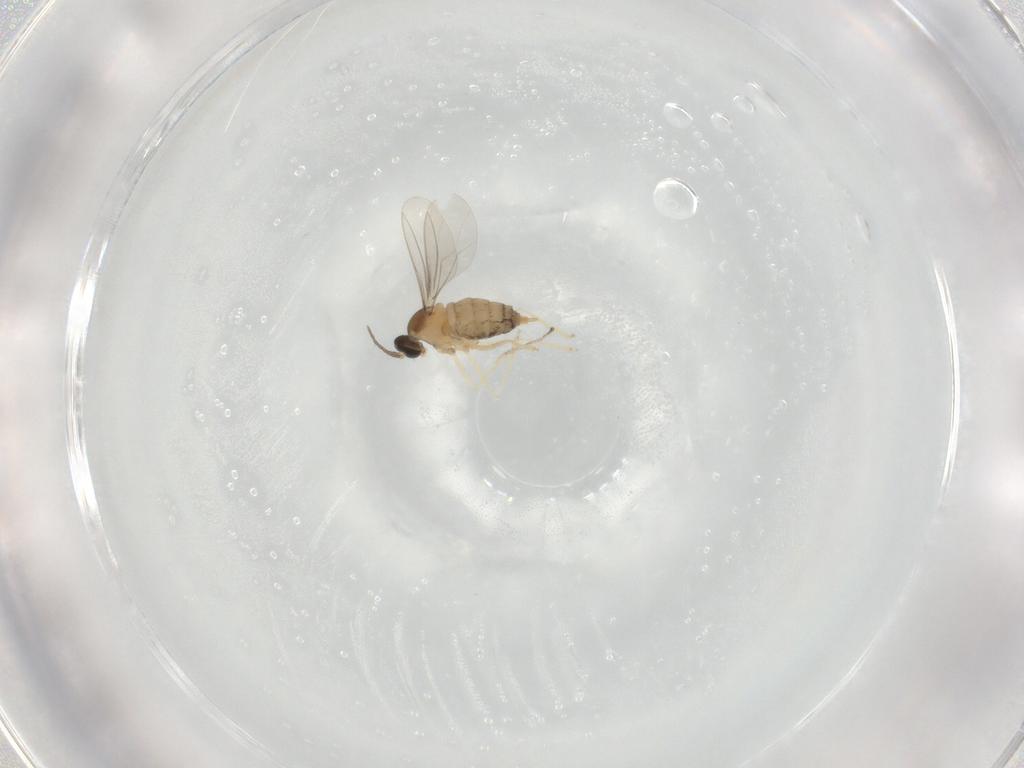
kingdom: Animalia
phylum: Arthropoda
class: Insecta
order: Diptera
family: Cecidomyiidae
